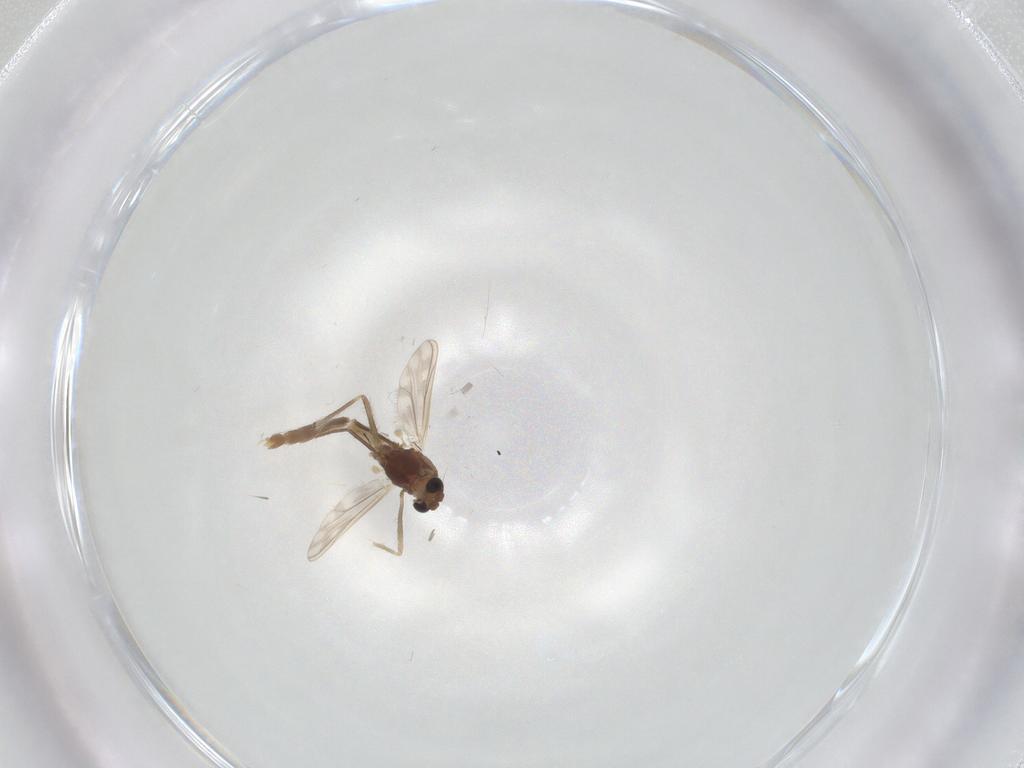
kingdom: Animalia
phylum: Arthropoda
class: Insecta
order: Diptera
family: Chironomidae
